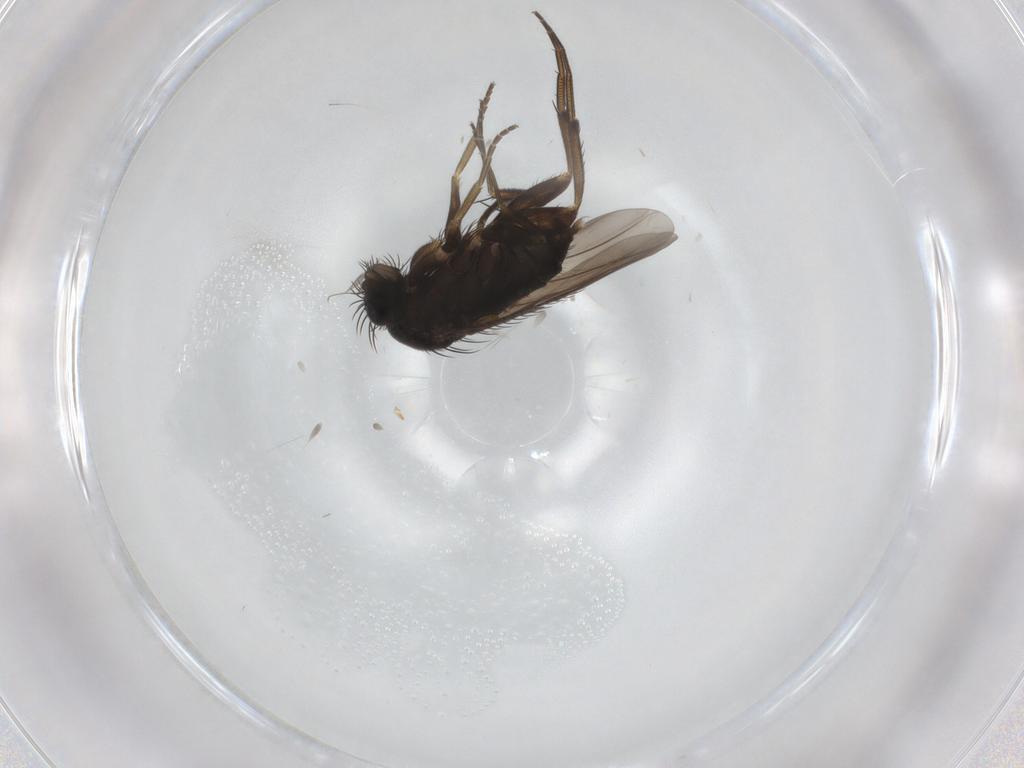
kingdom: Animalia
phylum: Arthropoda
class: Insecta
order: Diptera
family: Phoridae
